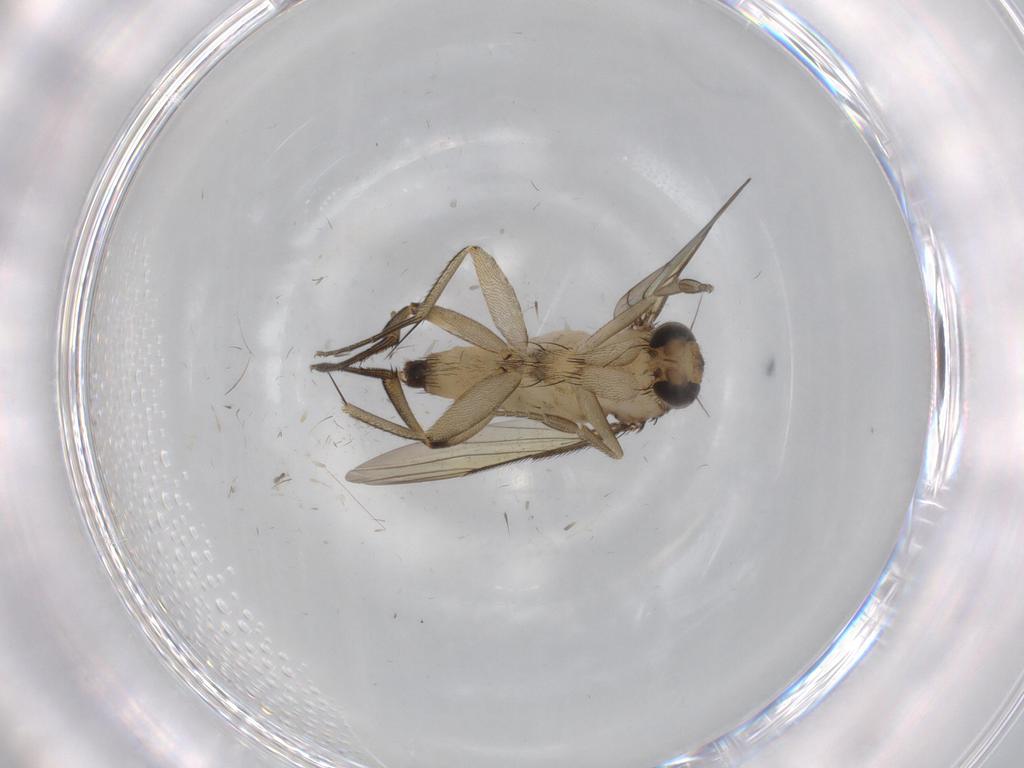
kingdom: Animalia
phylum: Arthropoda
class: Insecta
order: Diptera
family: Phoridae
